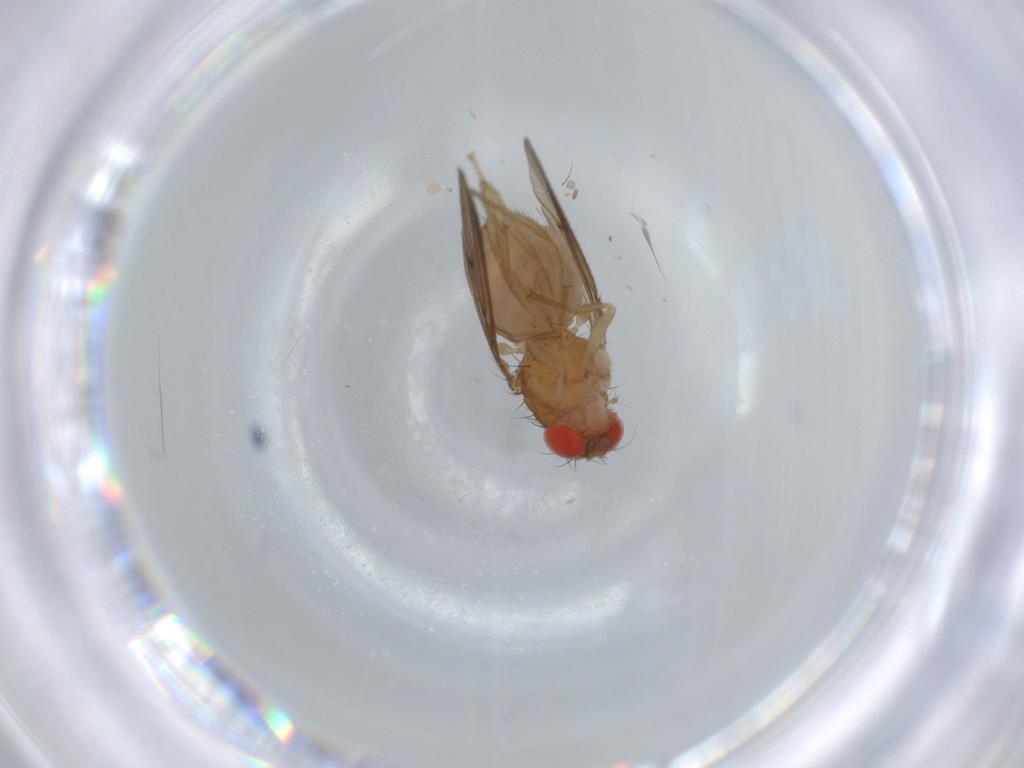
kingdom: Animalia
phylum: Arthropoda
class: Insecta
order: Diptera
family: Drosophilidae
